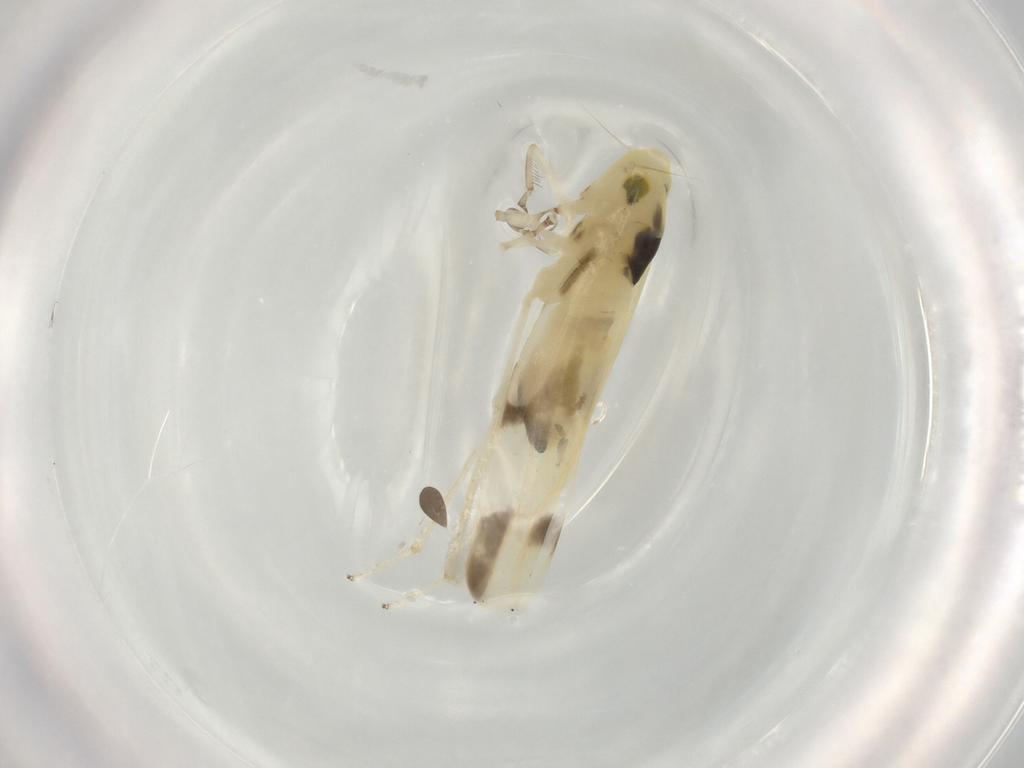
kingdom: Animalia
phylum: Arthropoda
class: Insecta
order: Hemiptera
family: Cicadellidae
